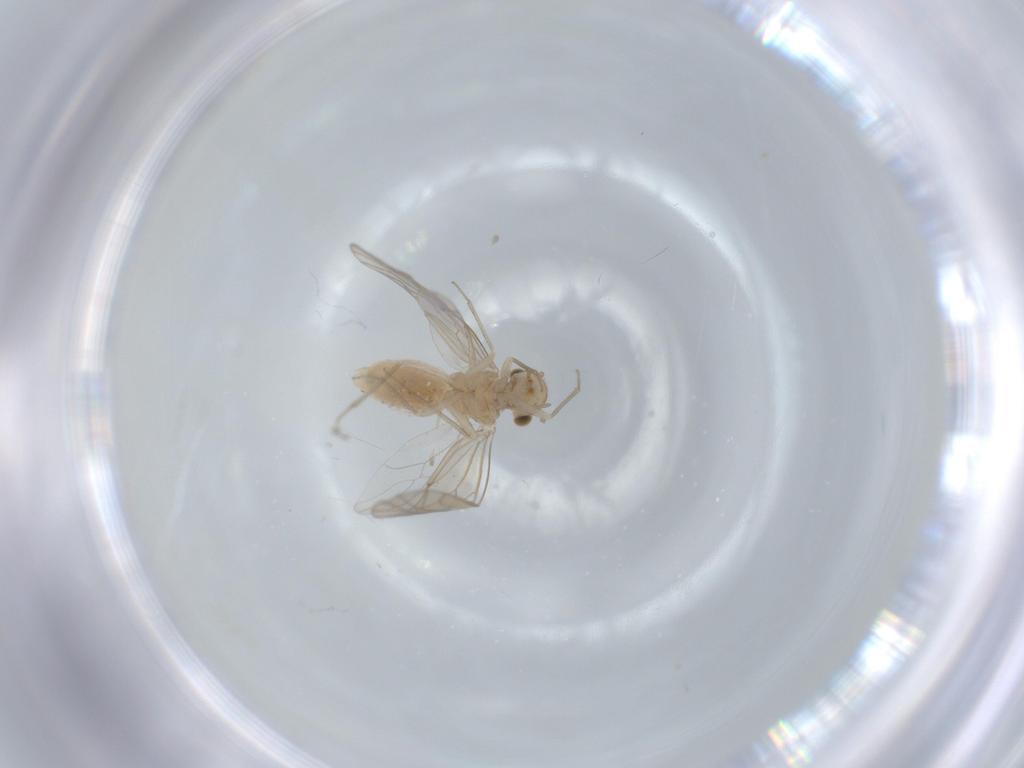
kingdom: Animalia
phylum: Arthropoda
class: Insecta
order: Psocodea
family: Lachesillidae
